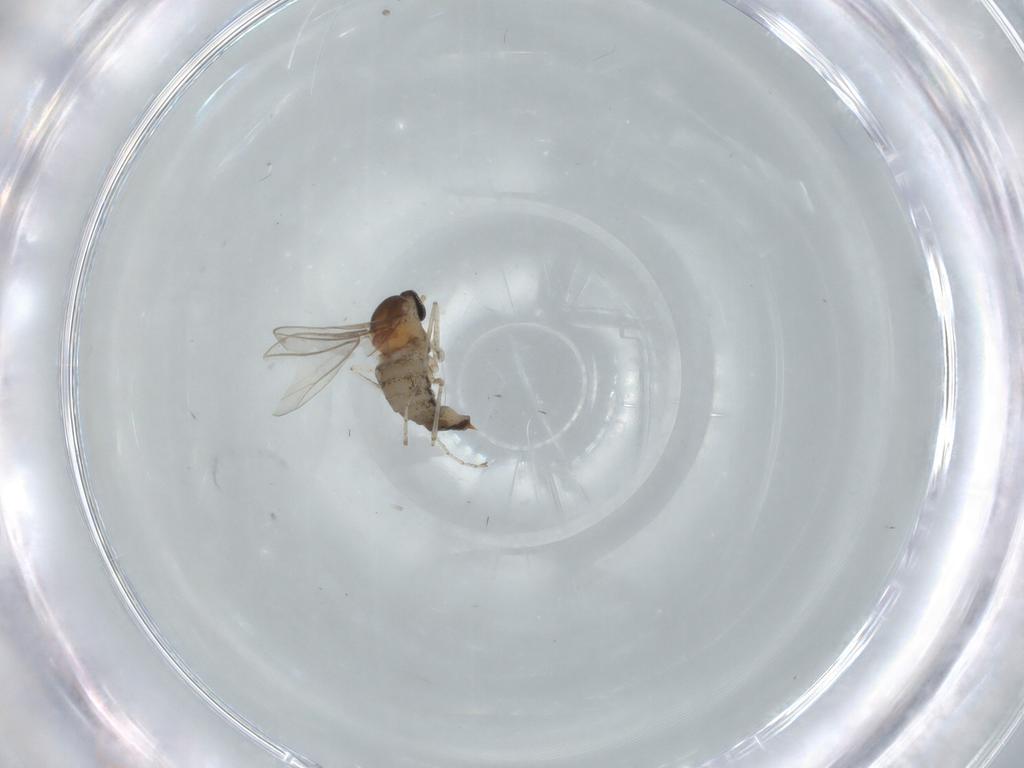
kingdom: Animalia
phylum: Arthropoda
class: Insecta
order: Diptera
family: Cecidomyiidae
